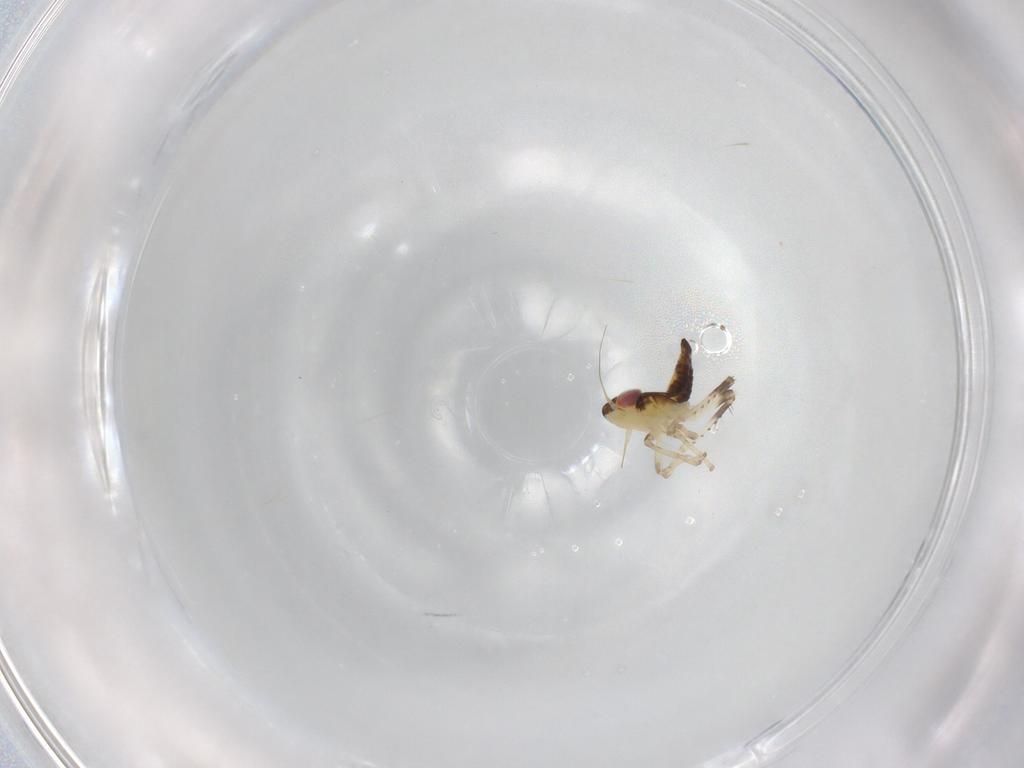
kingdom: Animalia
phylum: Arthropoda
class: Insecta
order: Hemiptera
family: Cicadellidae
